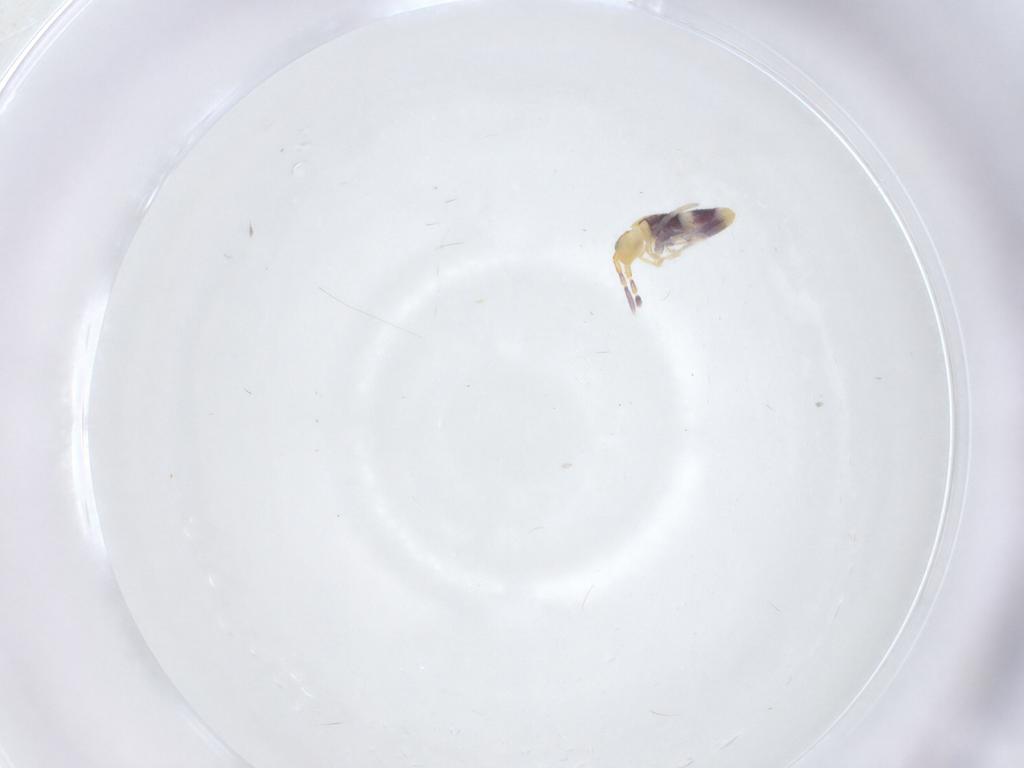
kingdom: Animalia
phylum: Arthropoda
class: Collembola
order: Entomobryomorpha
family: Entomobryidae
